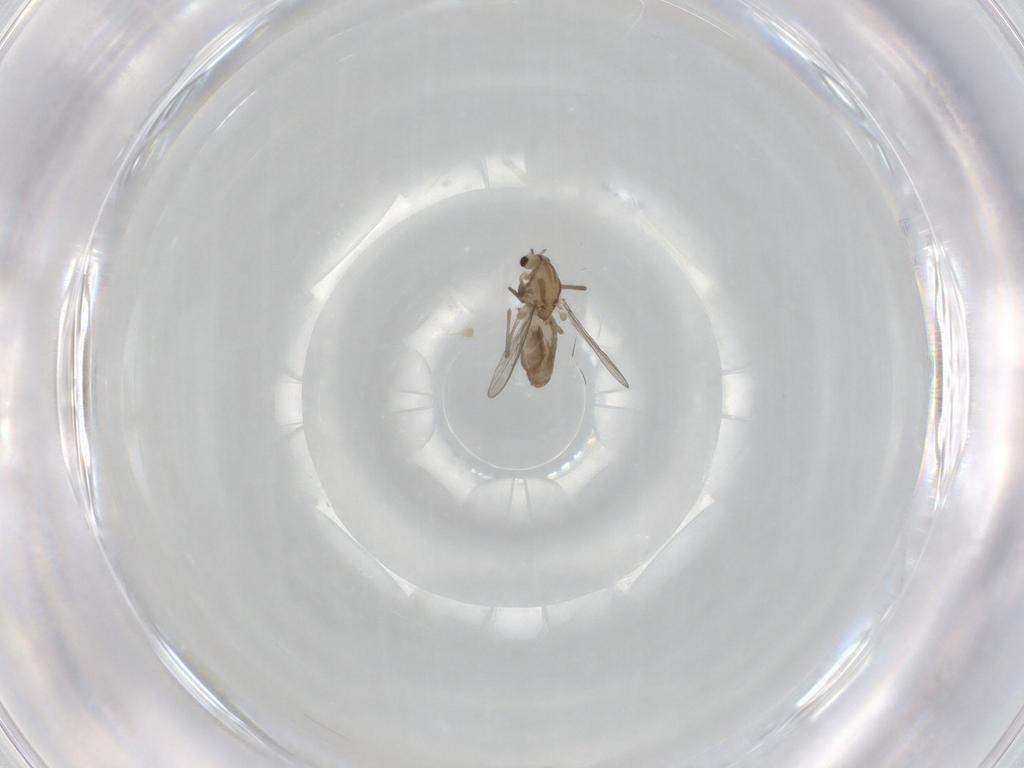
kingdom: Animalia
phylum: Arthropoda
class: Insecta
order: Diptera
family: Chironomidae
